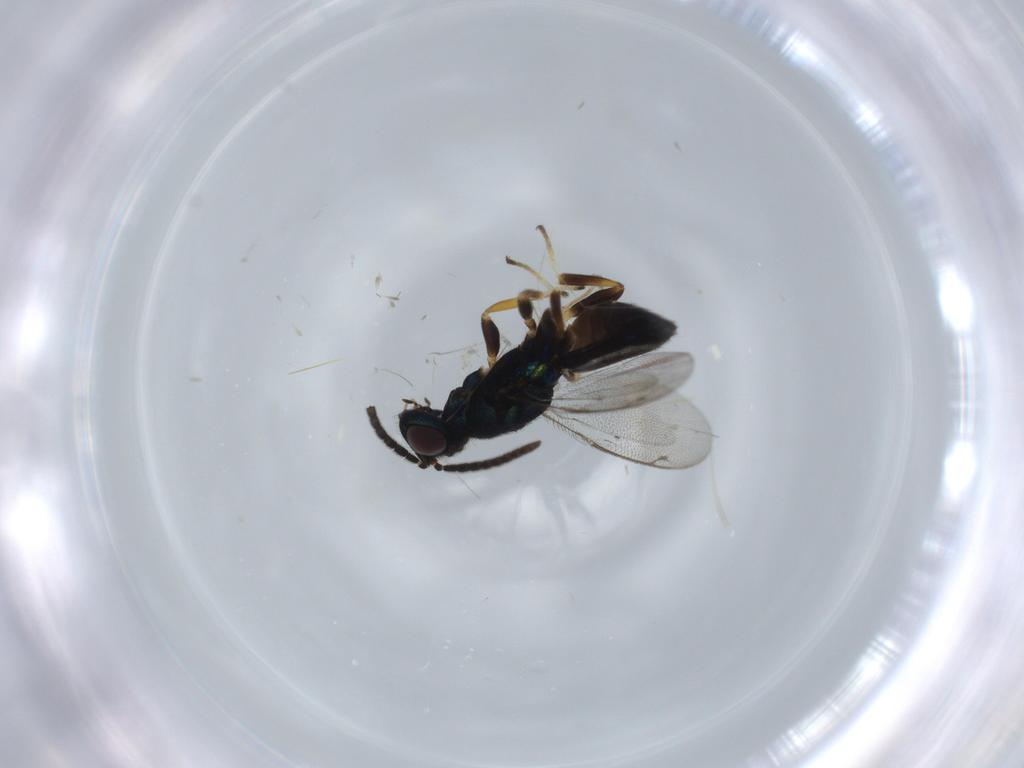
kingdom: Animalia
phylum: Arthropoda
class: Insecta
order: Hymenoptera
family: Eupelmidae
